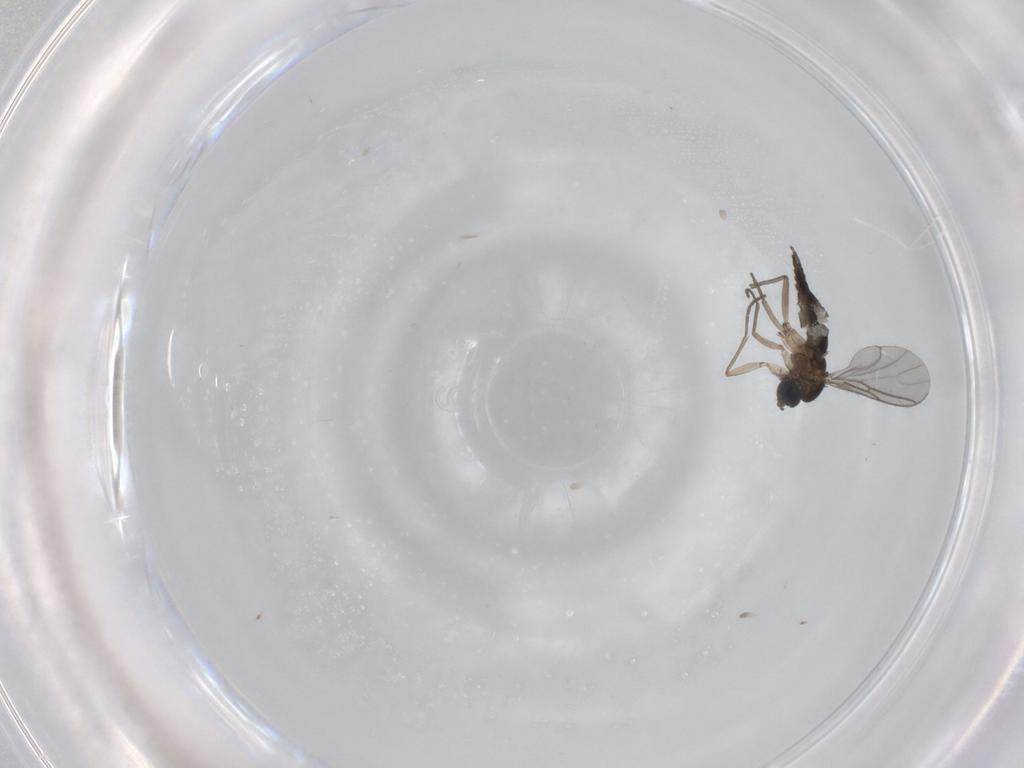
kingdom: Animalia
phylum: Arthropoda
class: Insecta
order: Diptera
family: Sciaridae
